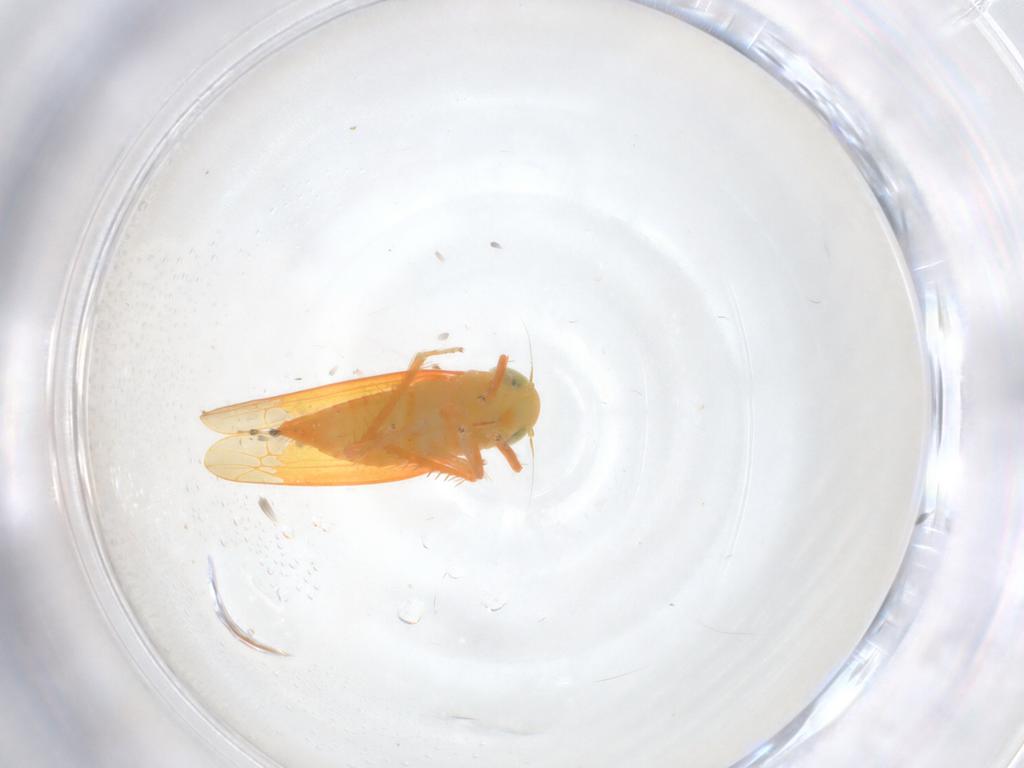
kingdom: Animalia
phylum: Arthropoda
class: Insecta
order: Hemiptera
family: Cicadellidae
